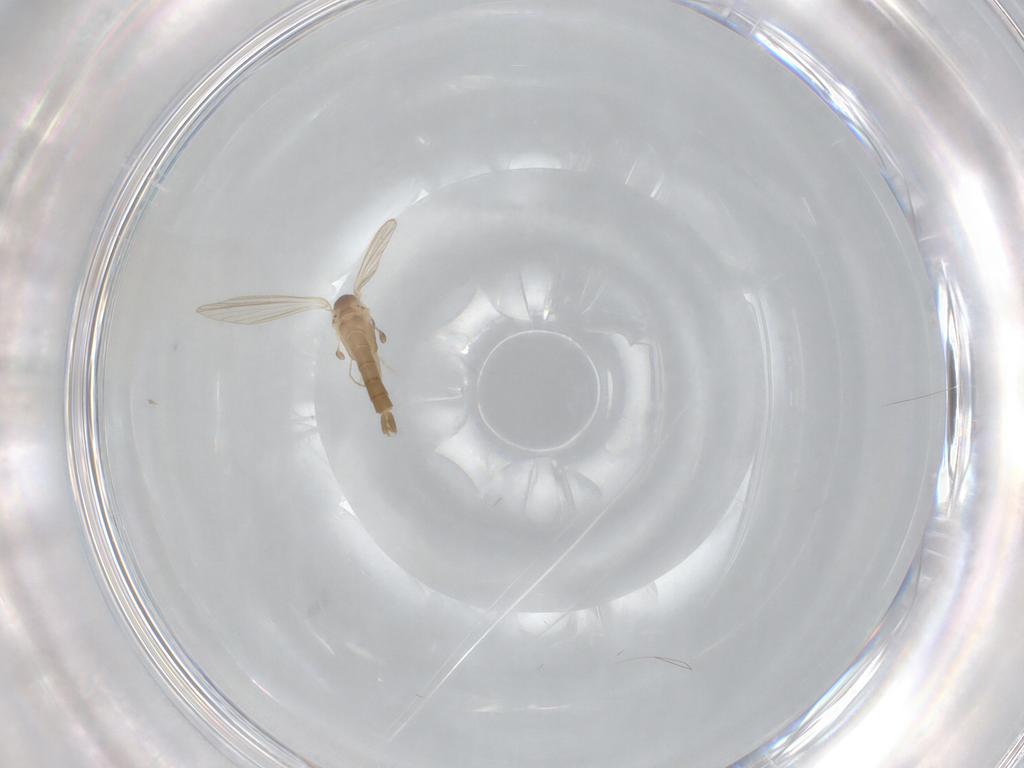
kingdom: Animalia
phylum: Arthropoda
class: Insecta
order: Diptera
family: Psychodidae
